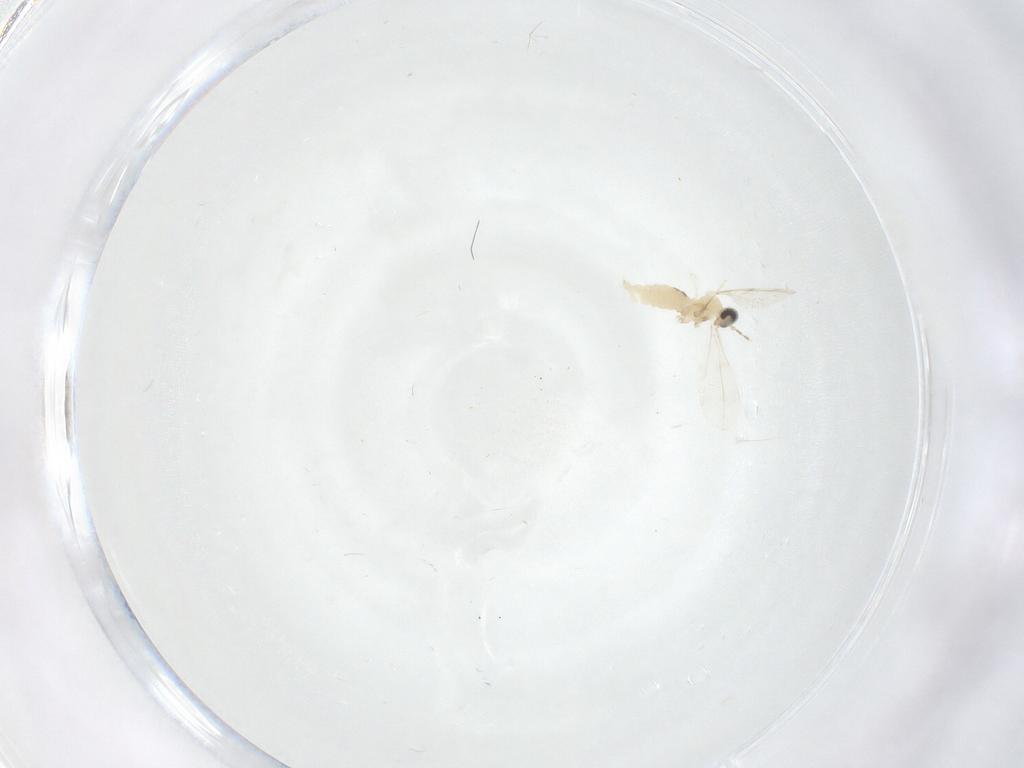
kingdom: Animalia
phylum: Arthropoda
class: Insecta
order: Diptera
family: Cecidomyiidae
